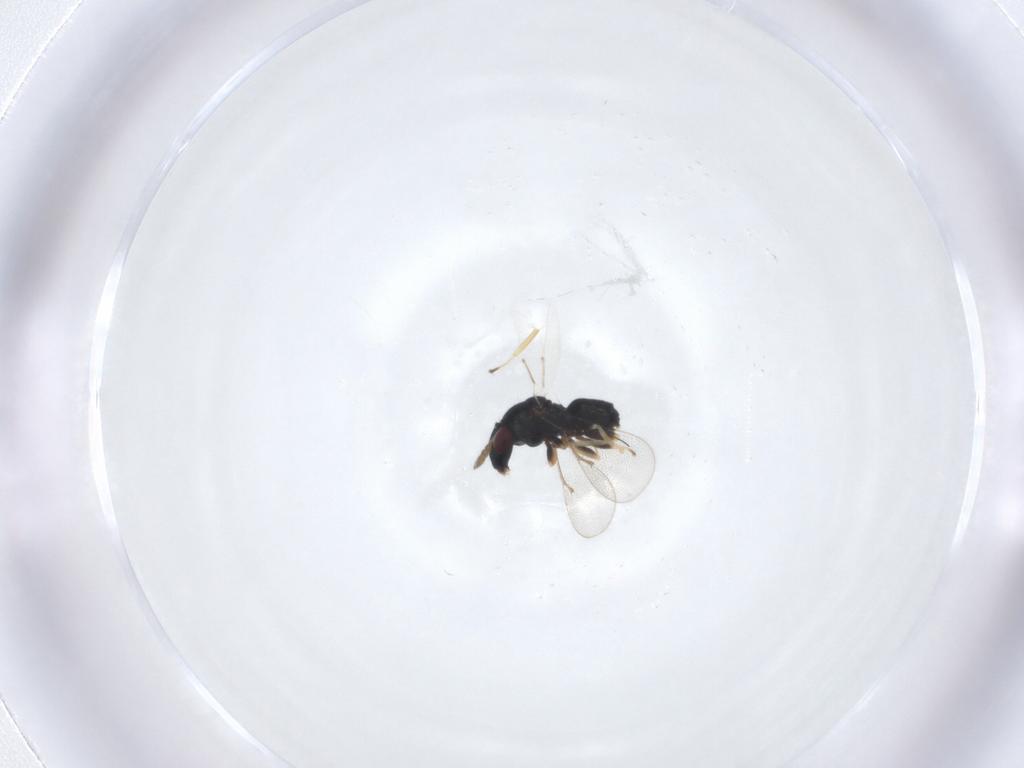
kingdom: Animalia
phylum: Arthropoda
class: Insecta
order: Hymenoptera
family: Eulophidae
